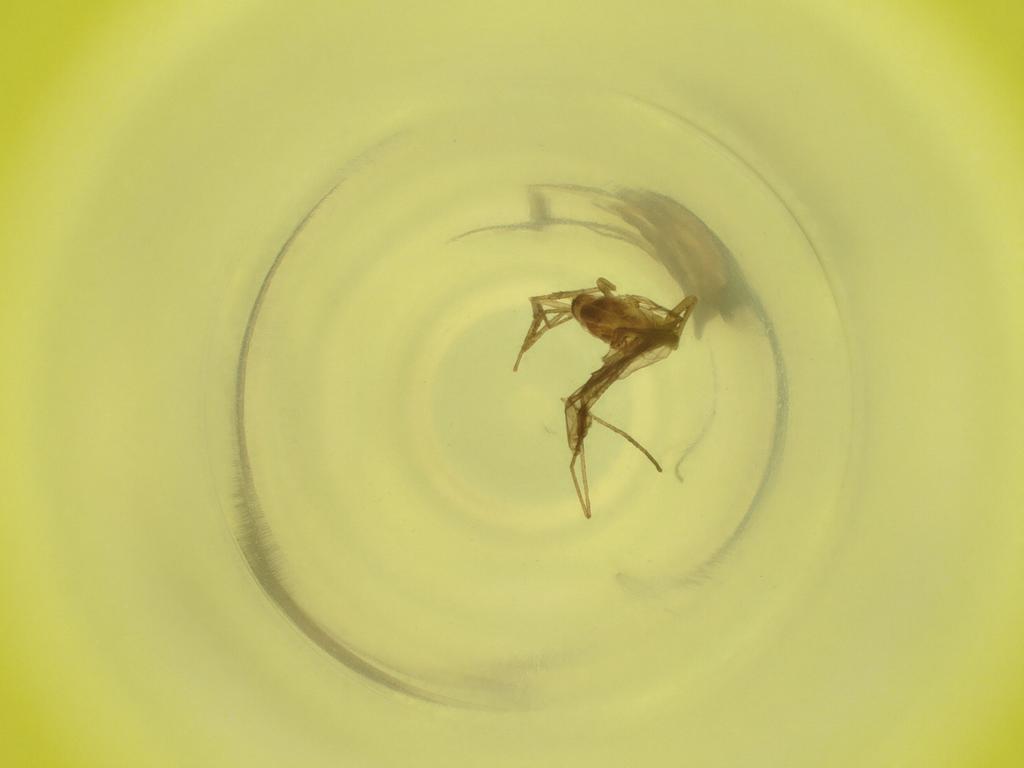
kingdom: Animalia
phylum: Arthropoda
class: Insecta
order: Diptera
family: Cecidomyiidae
